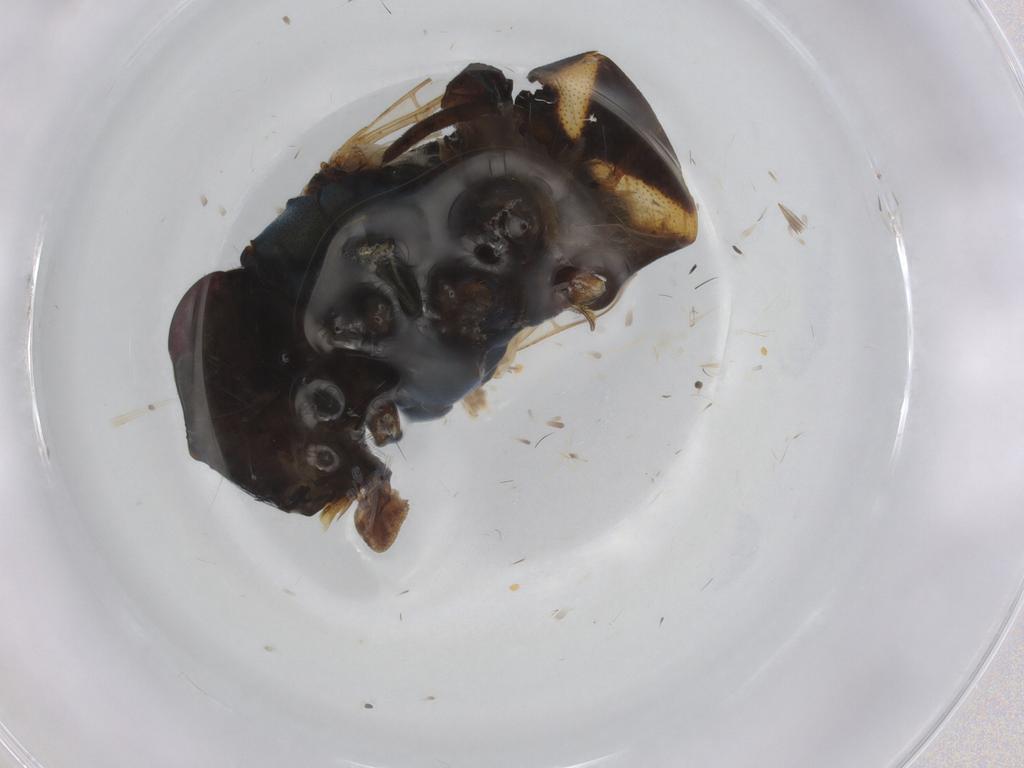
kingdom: Animalia
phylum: Arthropoda
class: Insecta
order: Diptera
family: Syrphidae
